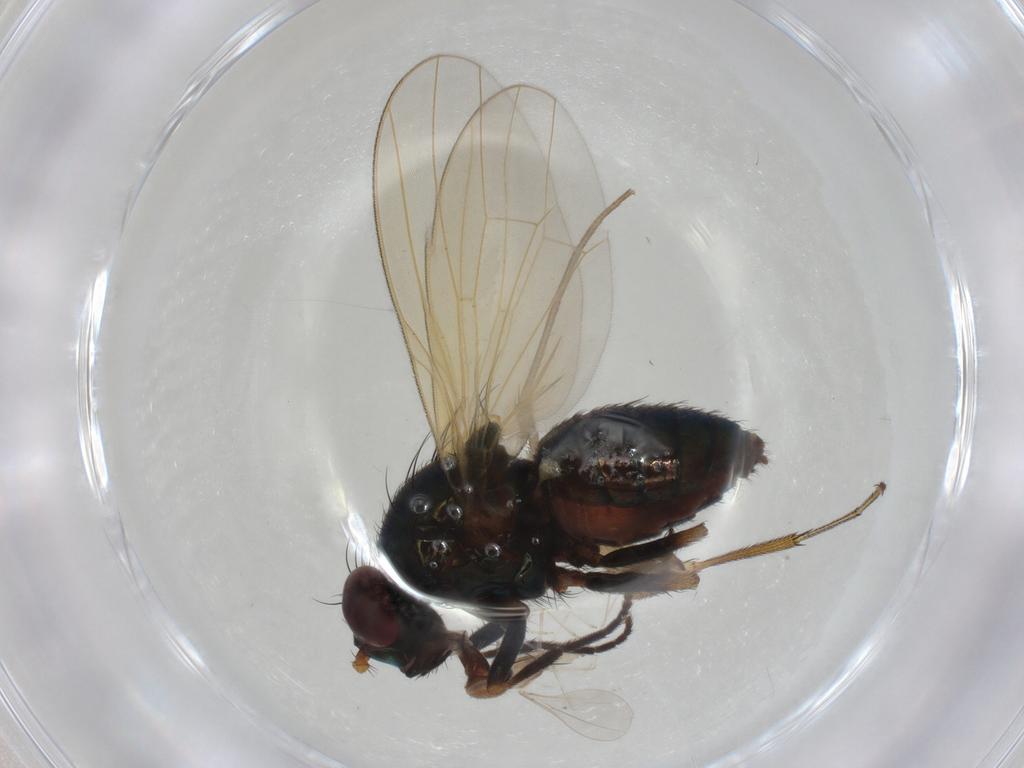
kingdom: Animalia
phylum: Arthropoda
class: Insecta
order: Diptera
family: Lauxaniidae
